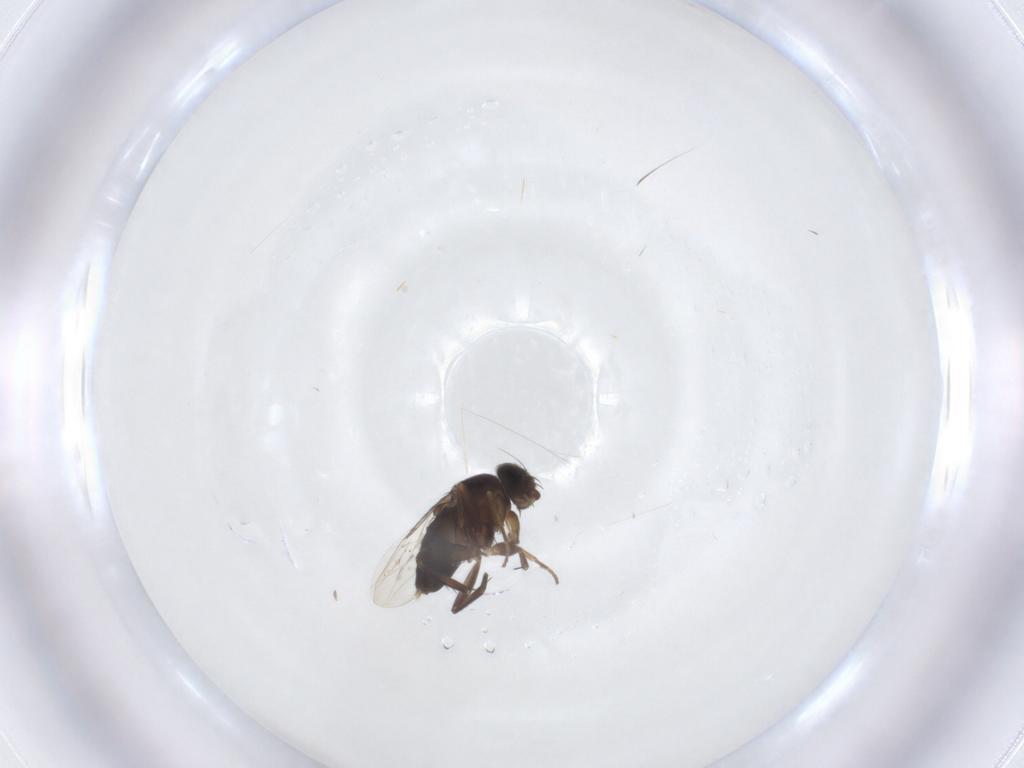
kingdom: Animalia
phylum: Arthropoda
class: Insecta
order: Diptera
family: Phoridae
